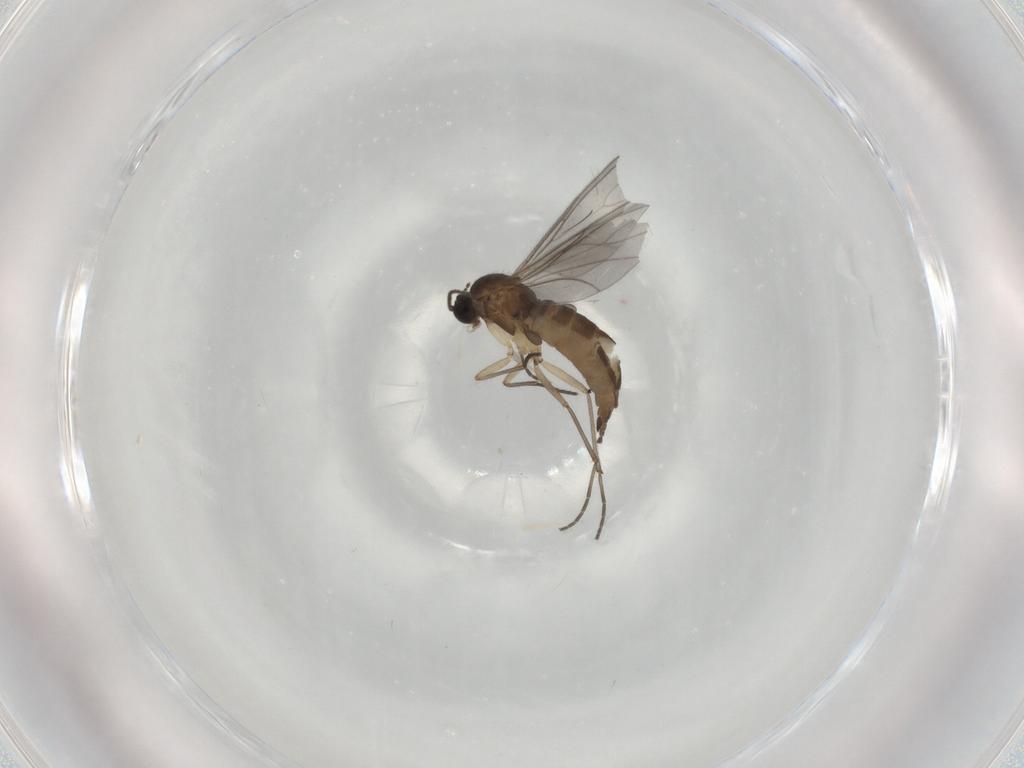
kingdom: Animalia
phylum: Arthropoda
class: Insecta
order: Diptera
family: Sciaridae
